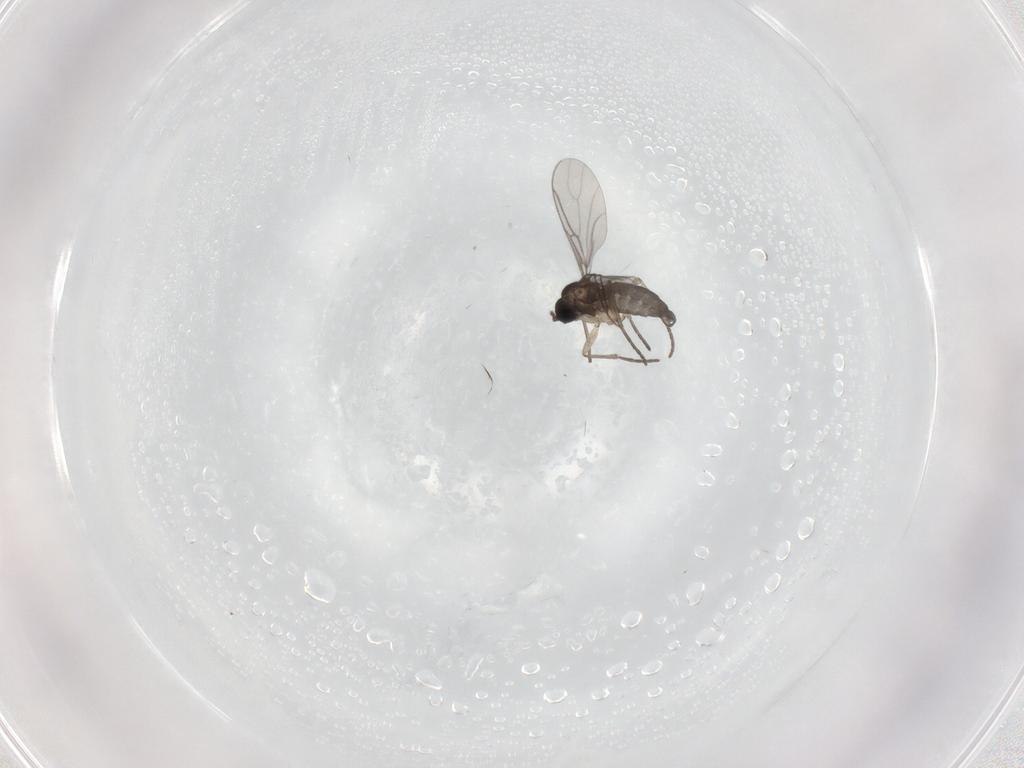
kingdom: Animalia
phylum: Arthropoda
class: Insecta
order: Diptera
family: Sciaridae
